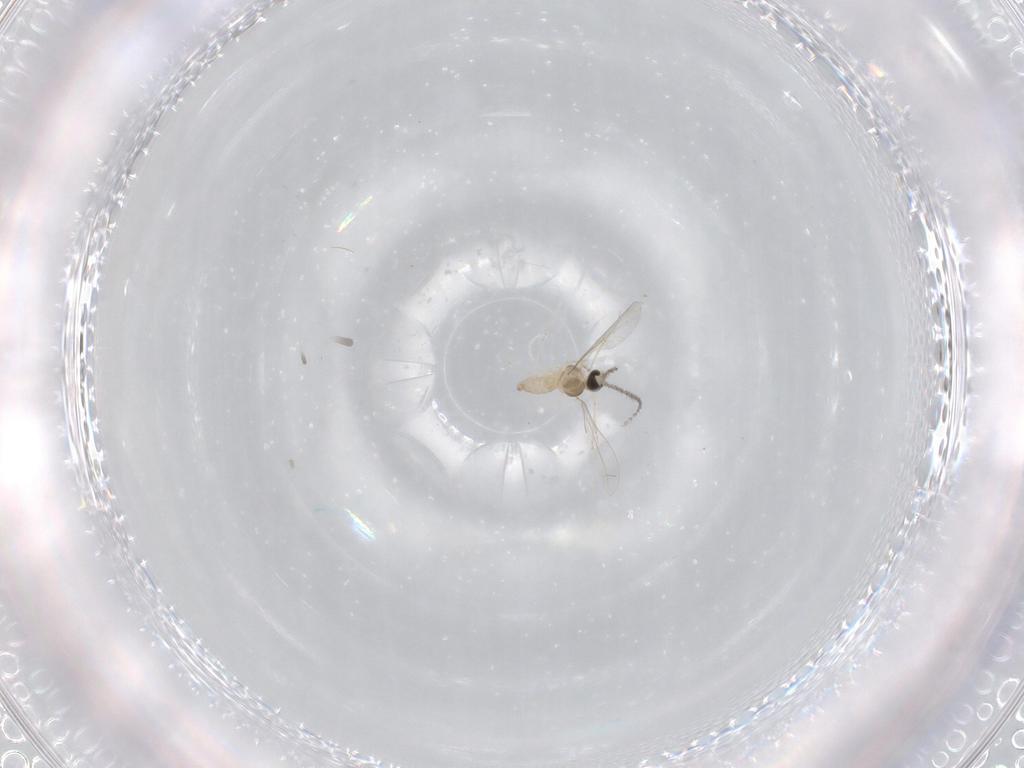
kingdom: Animalia
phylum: Arthropoda
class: Insecta
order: Diptera
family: Cecidomyiidae
